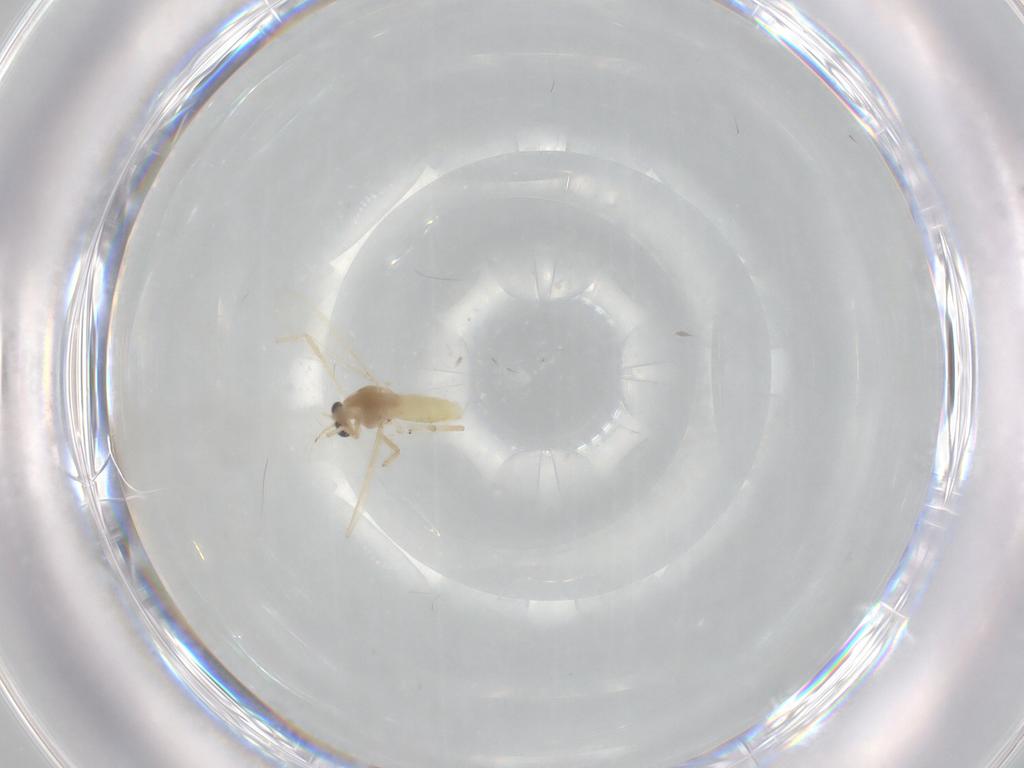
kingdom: Animalia
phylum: Arthropoda
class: Insecta
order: Diptera
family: Chironomidae
